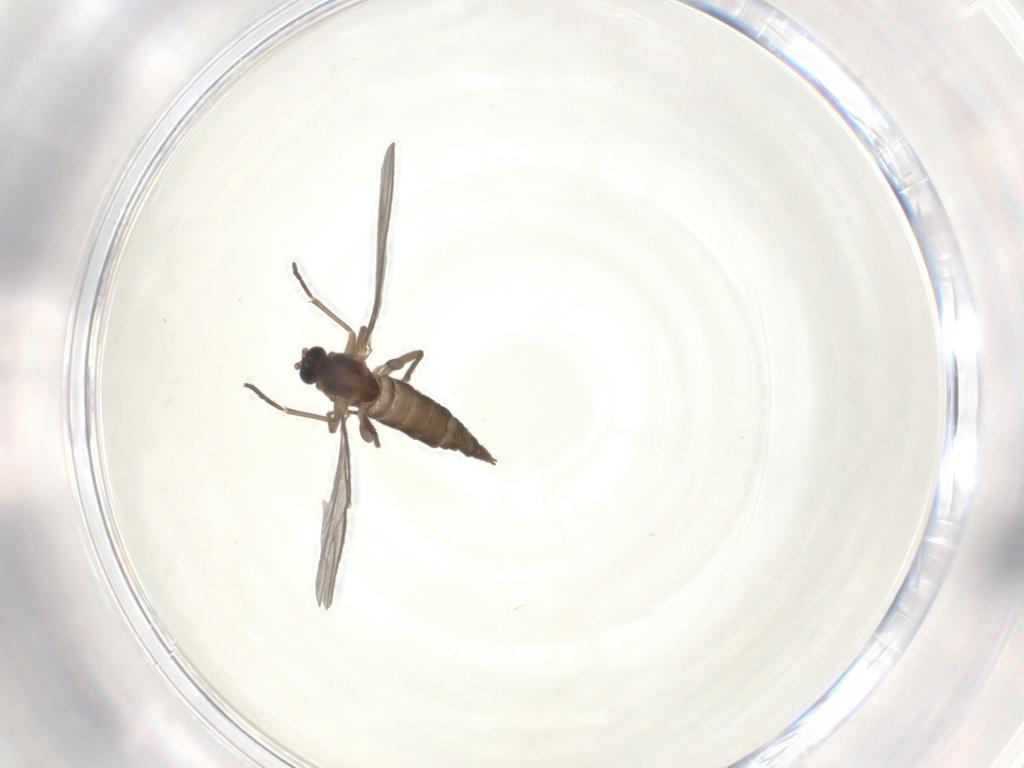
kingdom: Animalia
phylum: Arthropoda
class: Insecta
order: Diptera
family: Sciaridae
